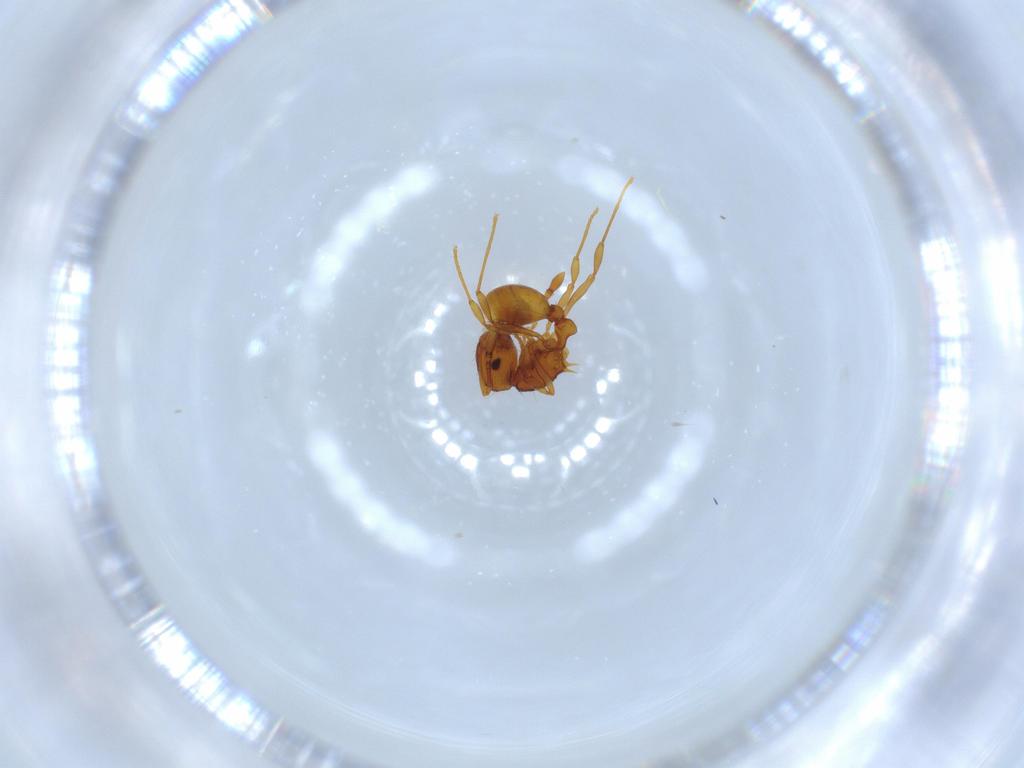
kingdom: Animalia
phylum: Arthropoda
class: Insecta
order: Hymenoptera
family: Formicidae
